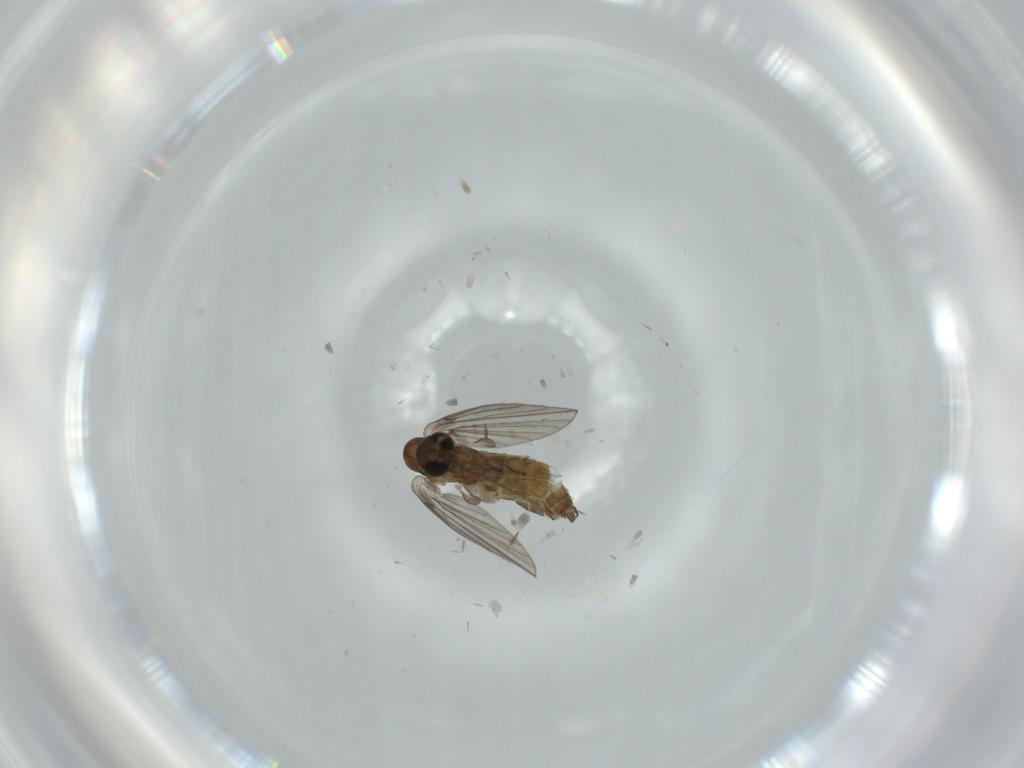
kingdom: Animalia
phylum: Arthropoda
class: Insecta
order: Diptera
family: Psychodidae
